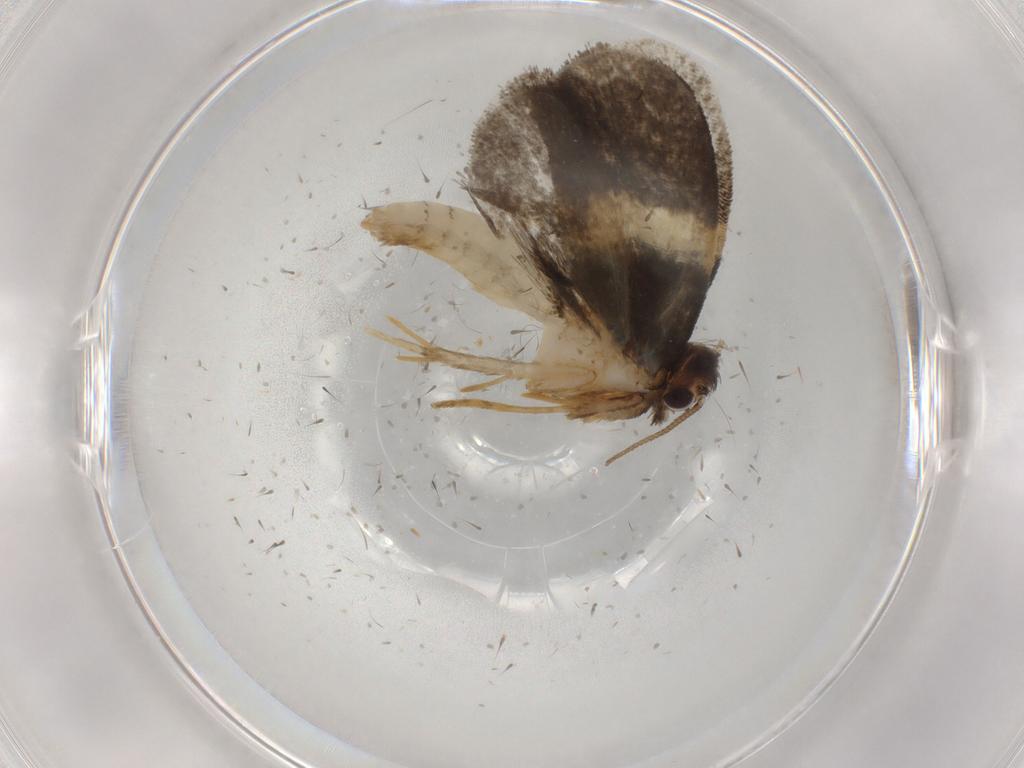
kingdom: Animalia
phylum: Arthropoda
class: Insecta
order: Lepidoptera
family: Psychidae
